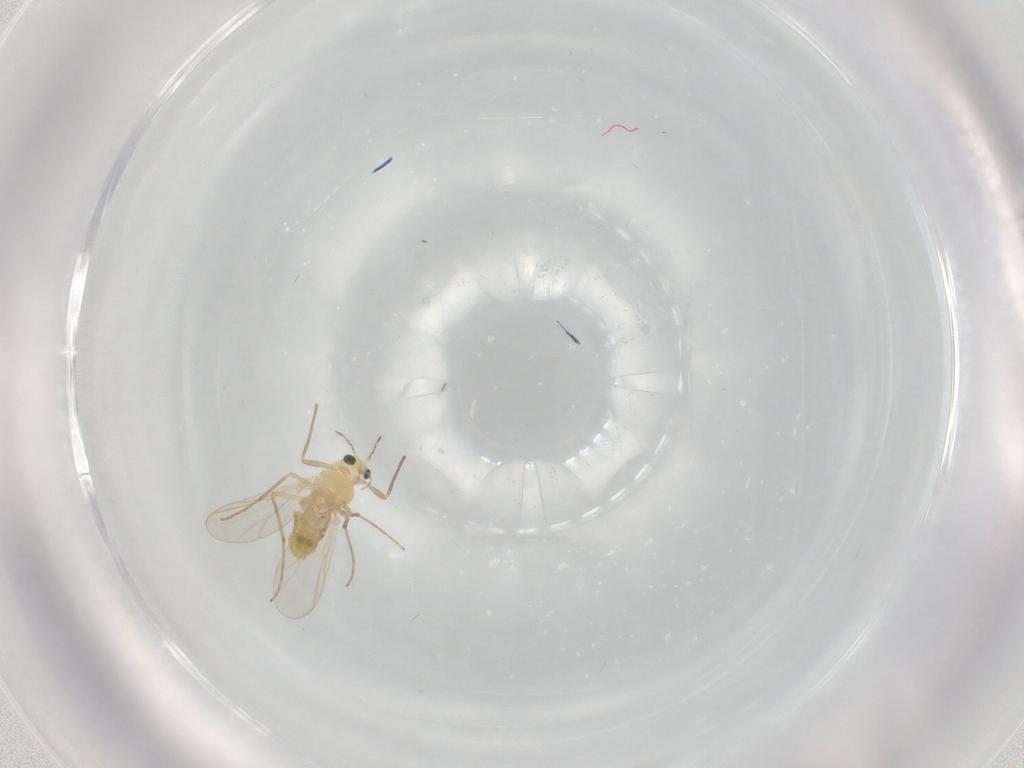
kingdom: Animalia
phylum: Arthropoda
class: Insecta
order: Diptera
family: Chironomidae
